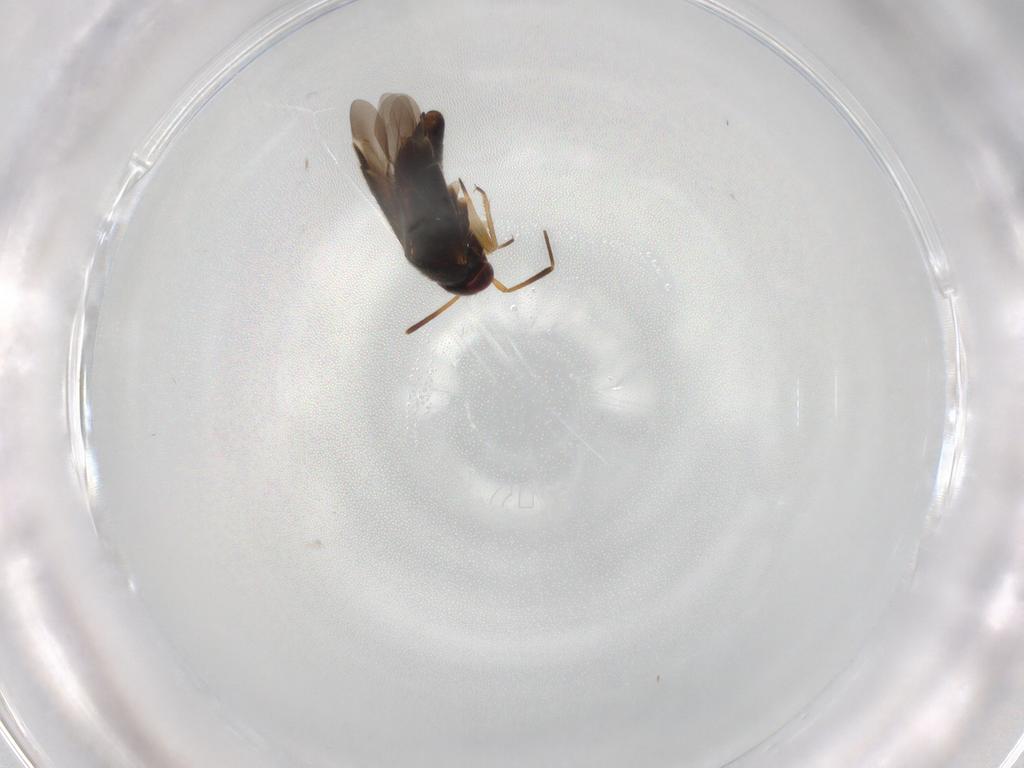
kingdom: Animalia
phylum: Arthropoda
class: Insecta
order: Hemiptera
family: Miridae
